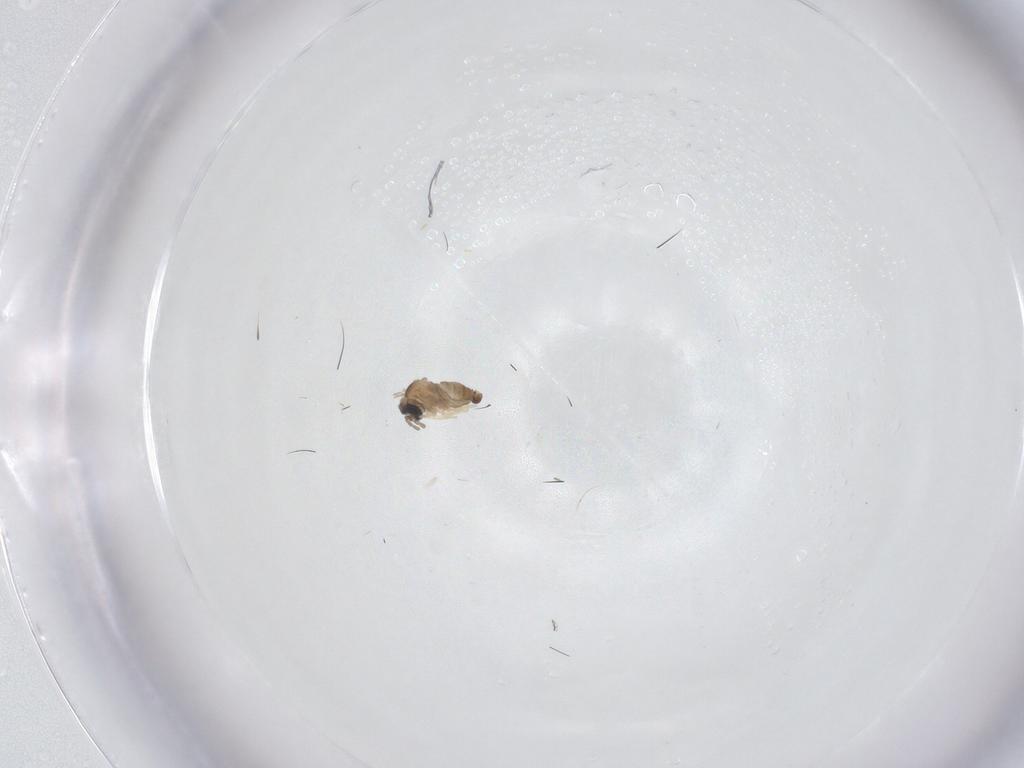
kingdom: Animalia
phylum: Arthropoda
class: Insecta
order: Diptera
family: Cecidomyiidae
